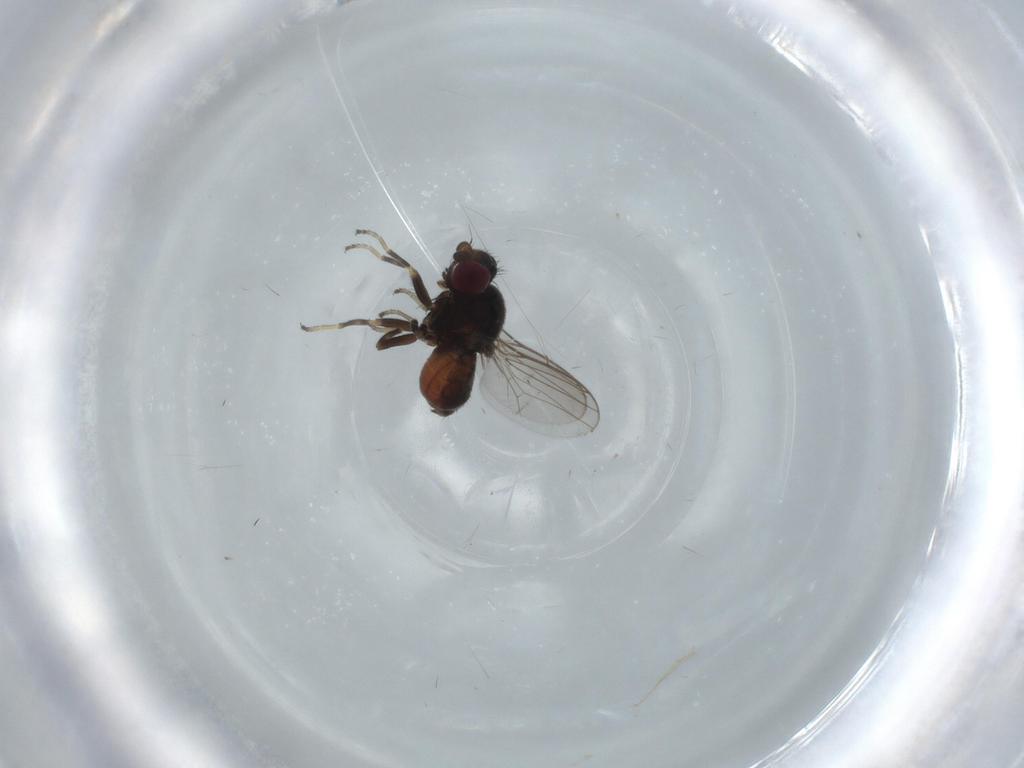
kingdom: Animalia
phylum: Arthropoda
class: Insecta
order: Diptera
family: Chloropidae
